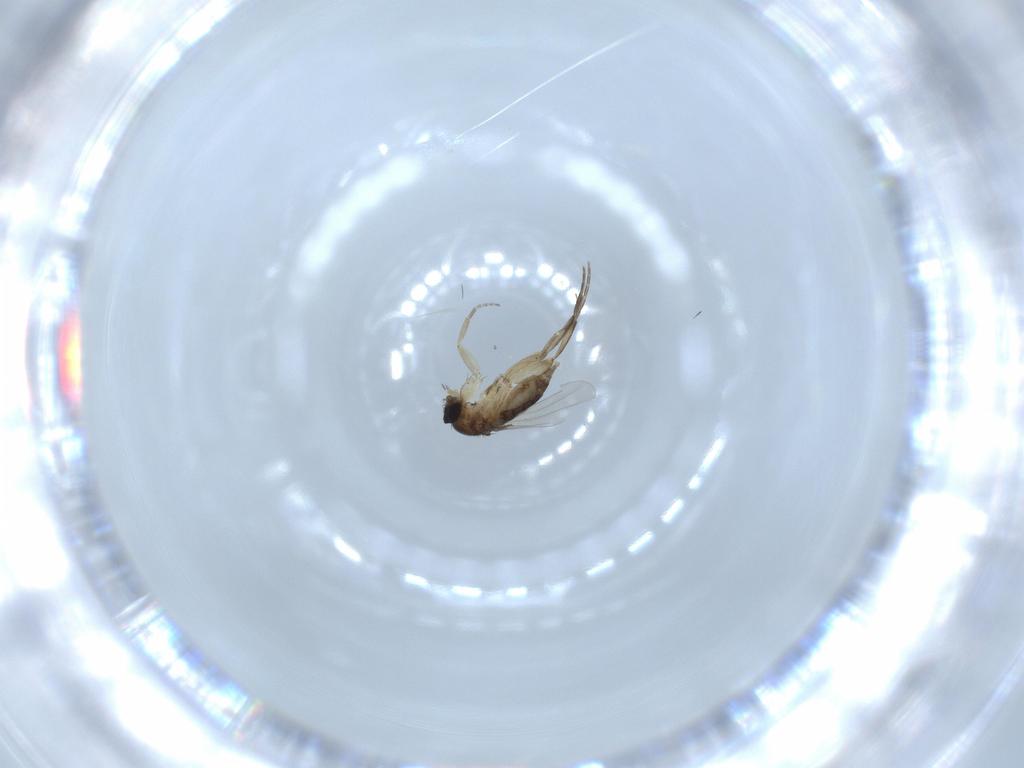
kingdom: Animalia
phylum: Arthropoda
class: Insecta
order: Diptera
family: Phoridae
